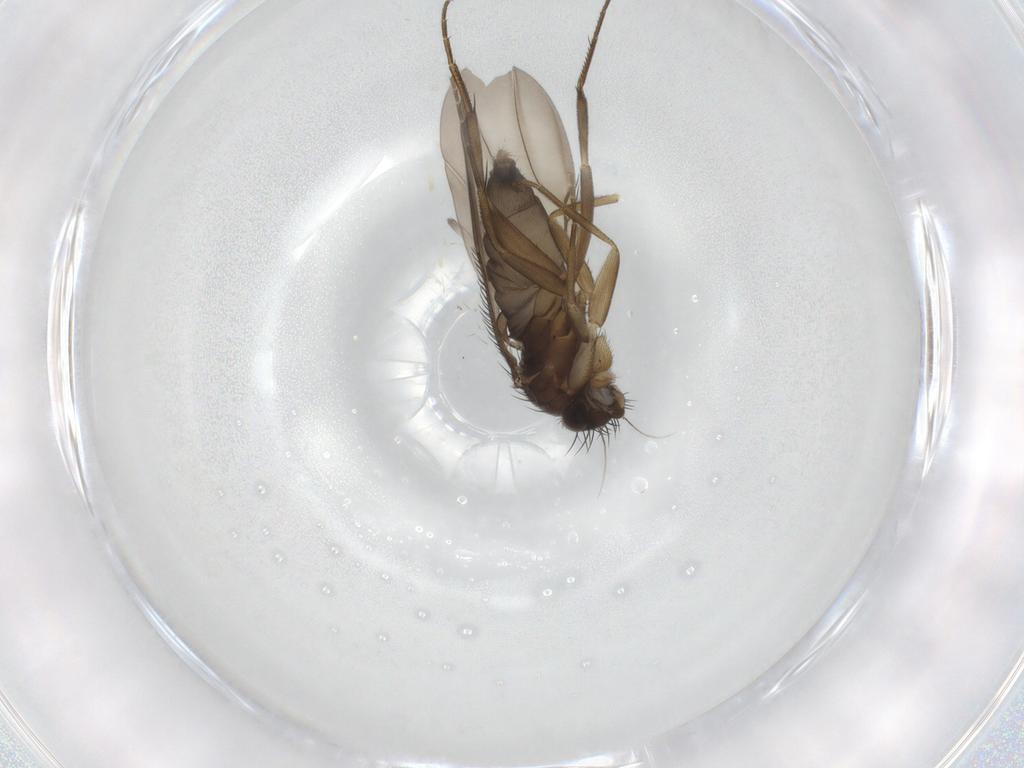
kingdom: Animalia
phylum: Arthropoda
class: Insecta
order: Diptera
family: Phoridae
